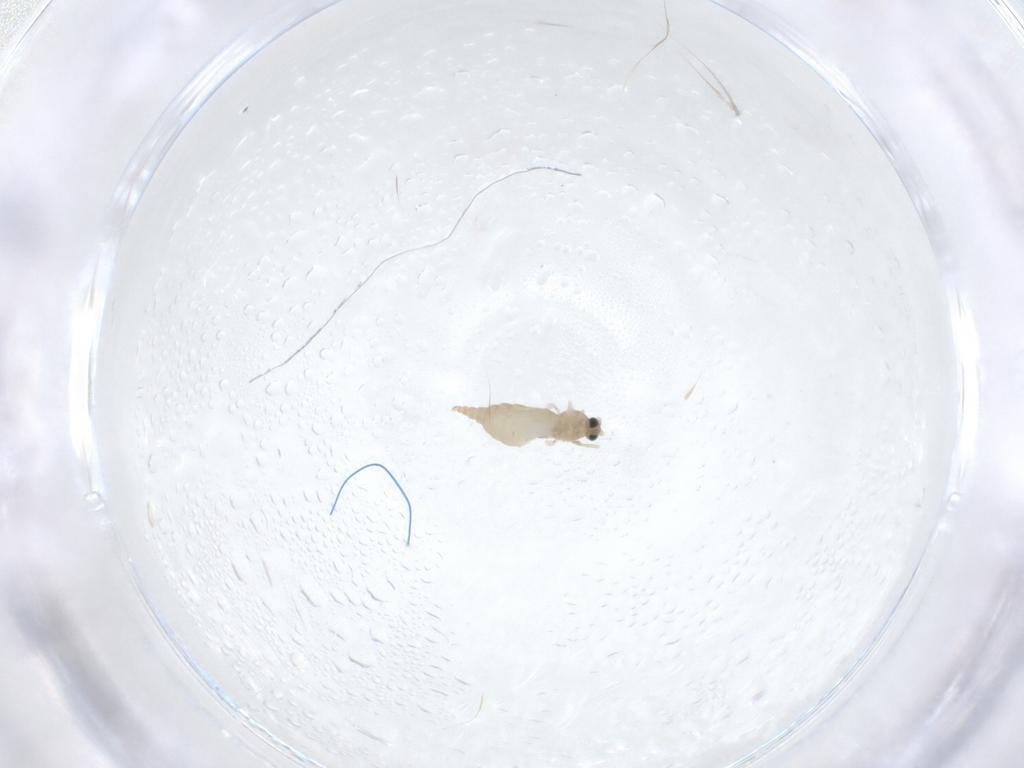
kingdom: Animalia
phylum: Arthropoda
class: Insecta
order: Diptera
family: Cecidomyiidae
